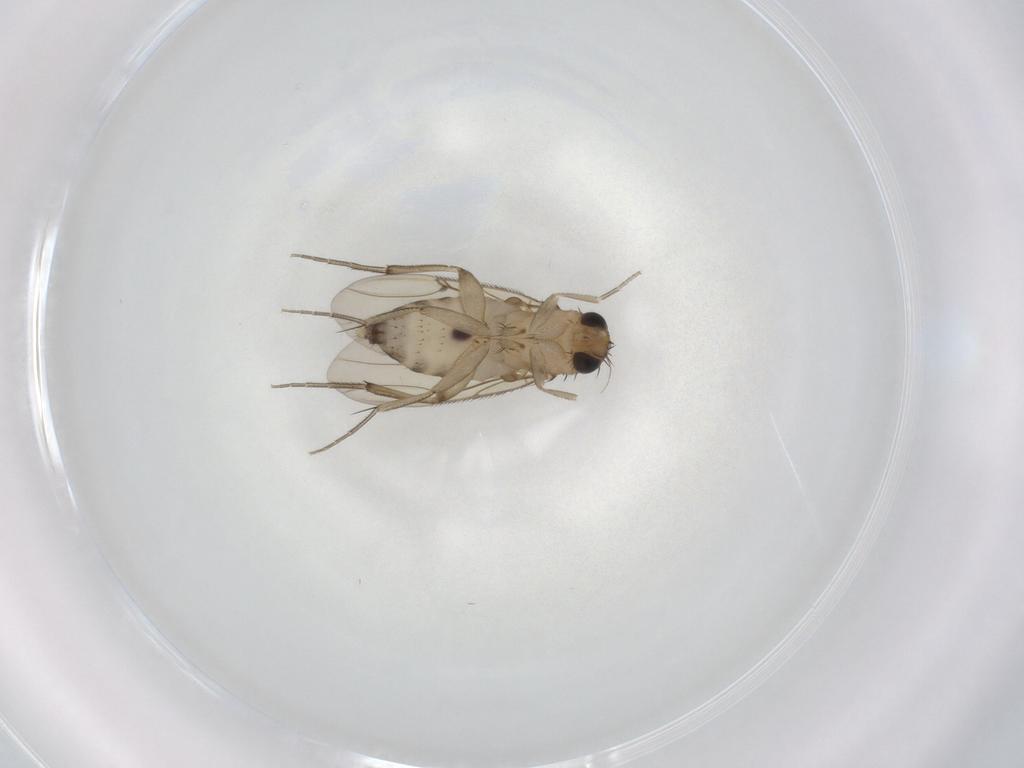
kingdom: Animalia
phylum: Arthropoda
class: Insecta
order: Diptera
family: Phoridae
